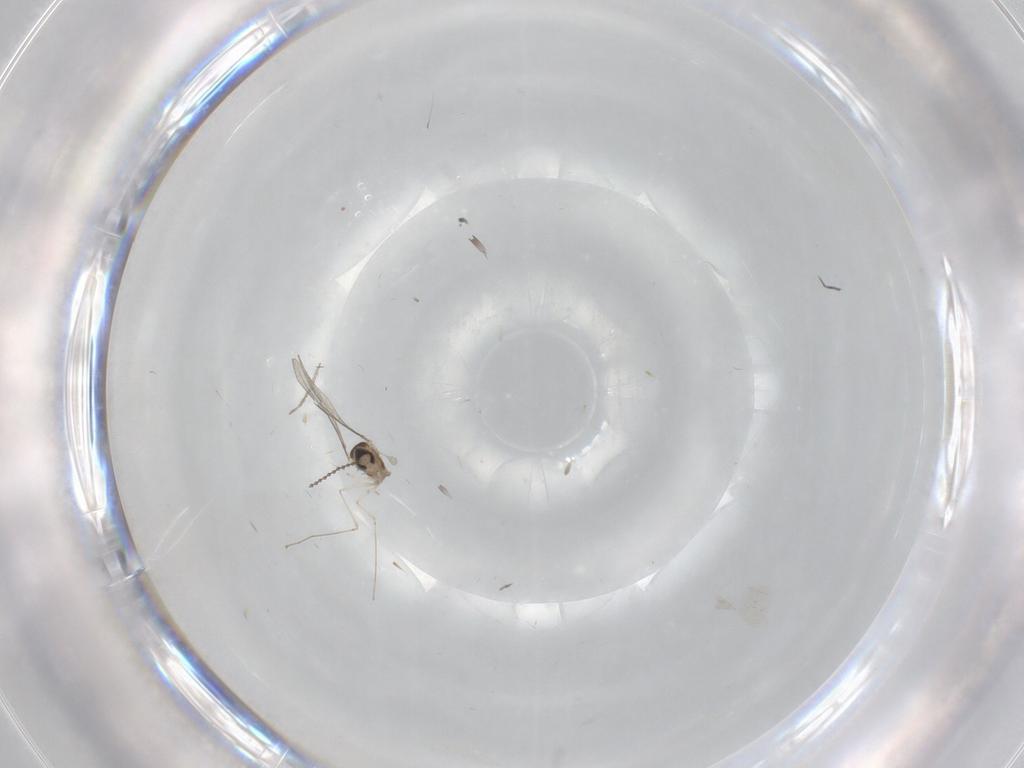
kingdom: Animalia
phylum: Arthropoda
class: Insecta
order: Diptera
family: Cecidomyiidae
